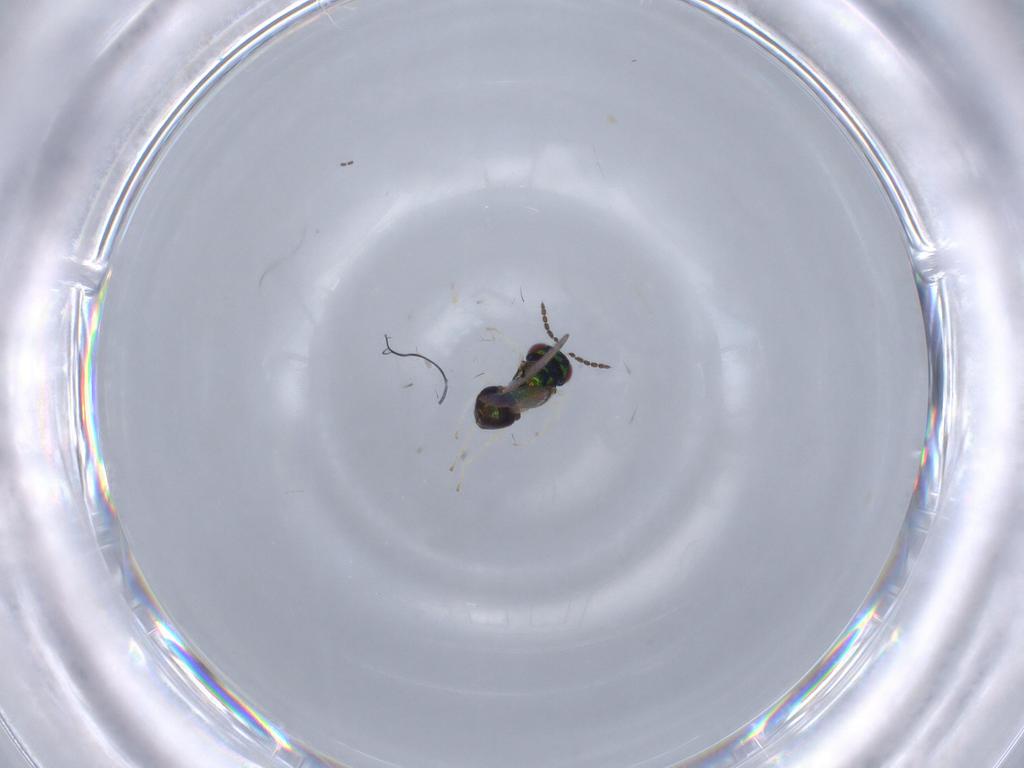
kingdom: Animalia
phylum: Arthropoda
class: Insecta
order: Hymenoptera
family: Eulophidae
